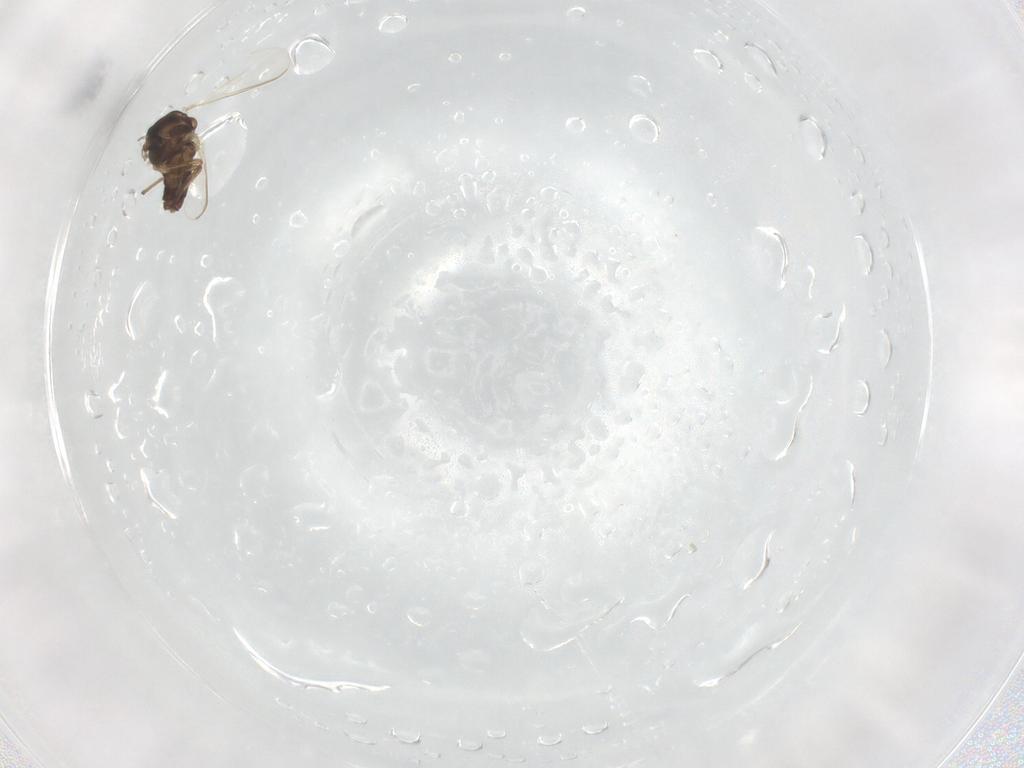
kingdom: Animalia
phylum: Arthropoda
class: Insecta
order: Diptera
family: Chironomidae
